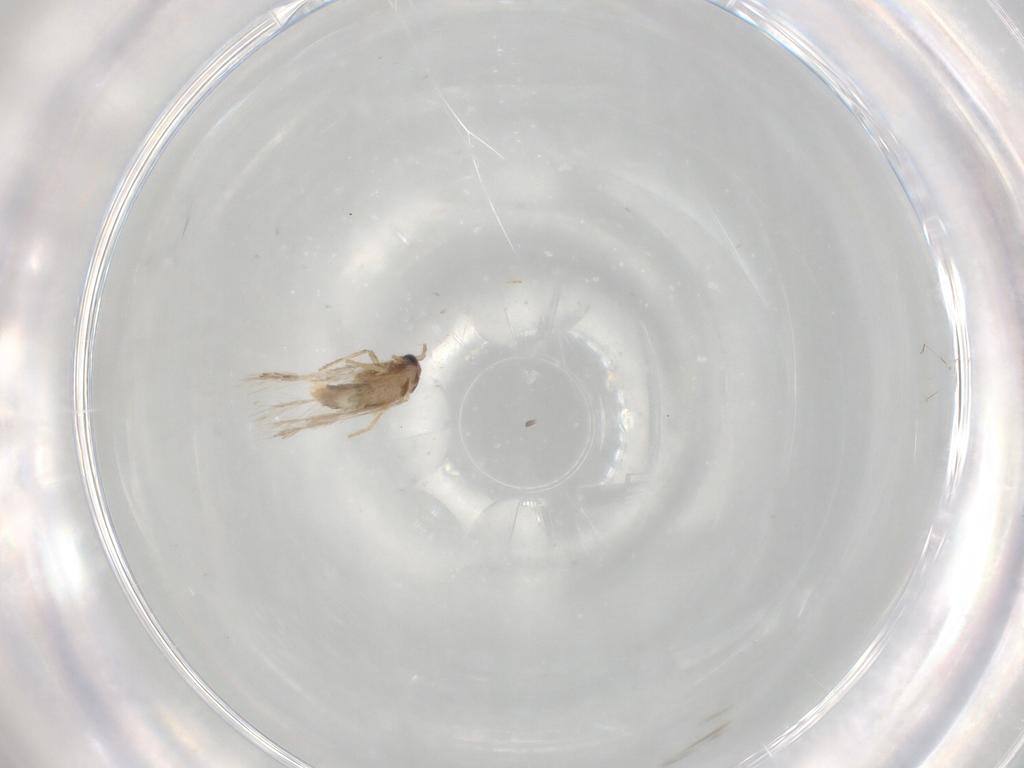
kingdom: Animalia
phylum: Arthropoda
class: Insecta
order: Lepidoptera
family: Nepticulidae
